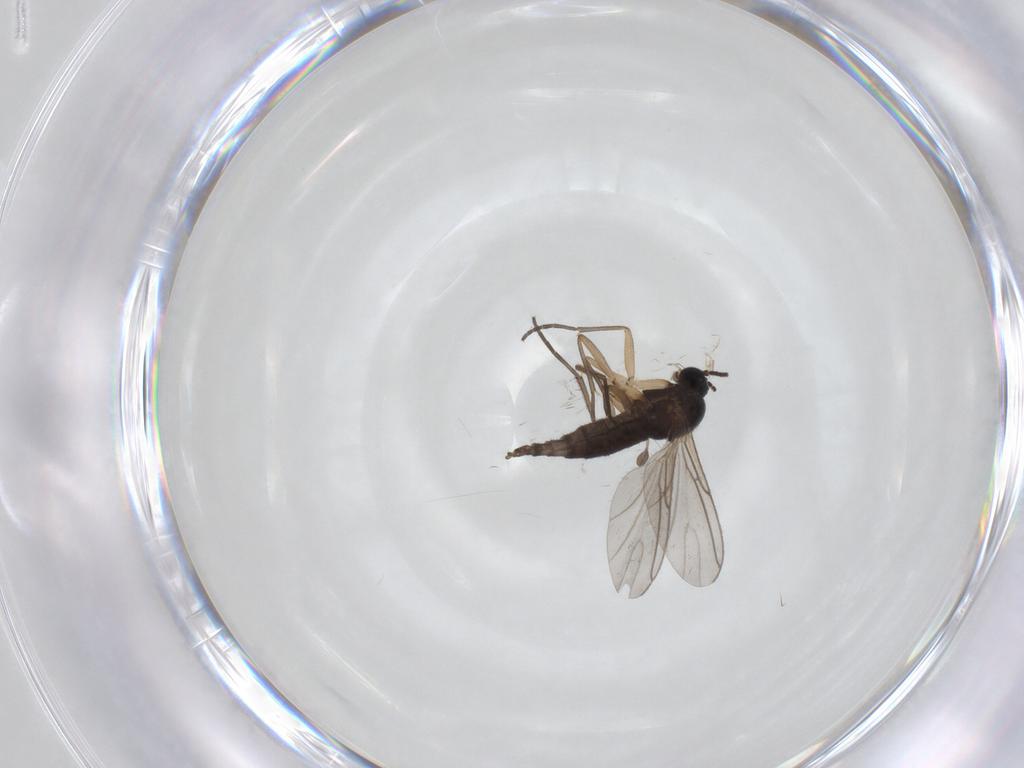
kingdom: Animalia
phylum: Arthropoda
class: Insecta
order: Diptera
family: Sciaridae
